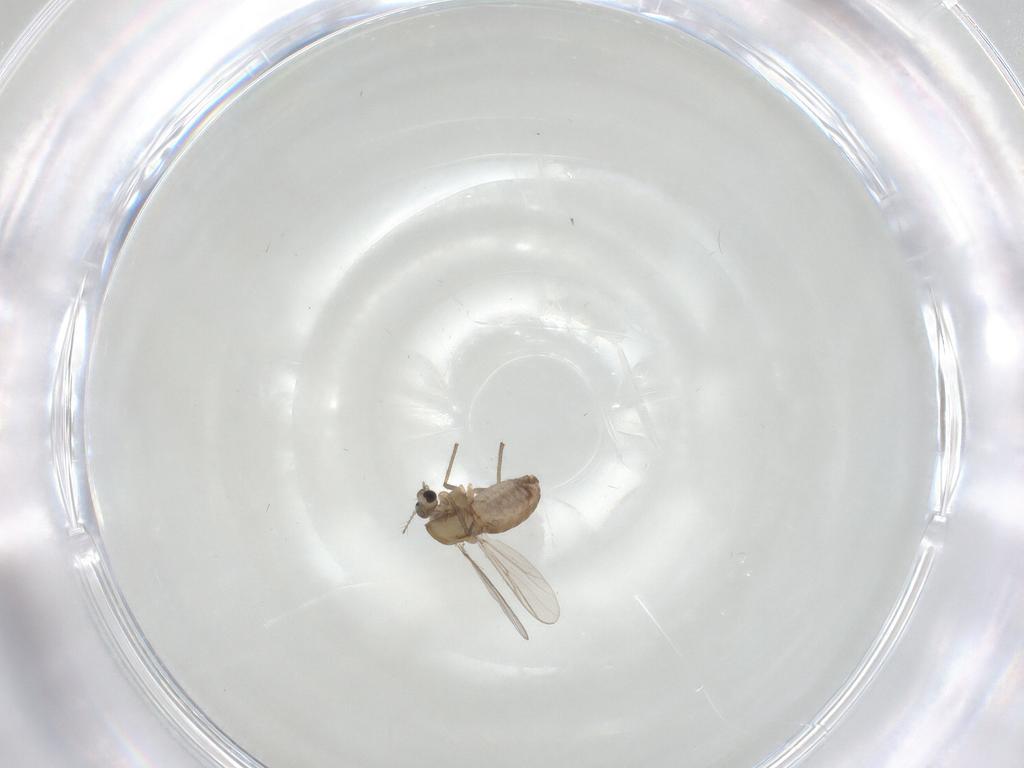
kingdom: Animalia
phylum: Arthropoda
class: Insecta
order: Diptera
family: Chironomidae
